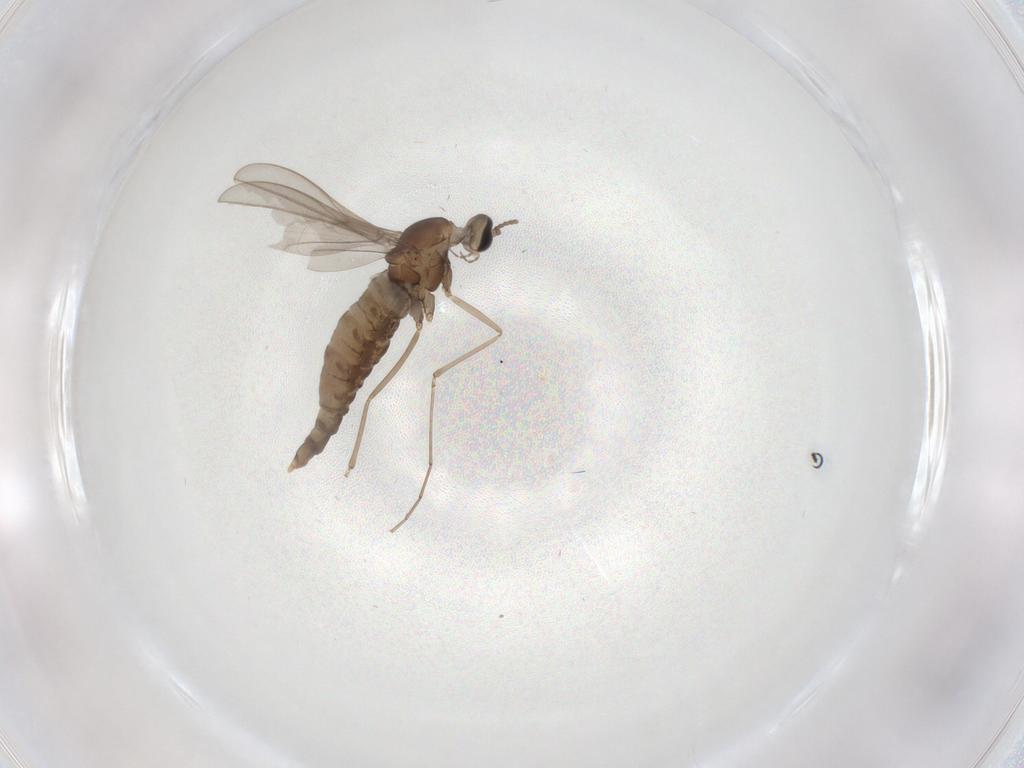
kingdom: Animalia
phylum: Arthropoda
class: Insecta
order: Diptera
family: Cecidomyiidae
